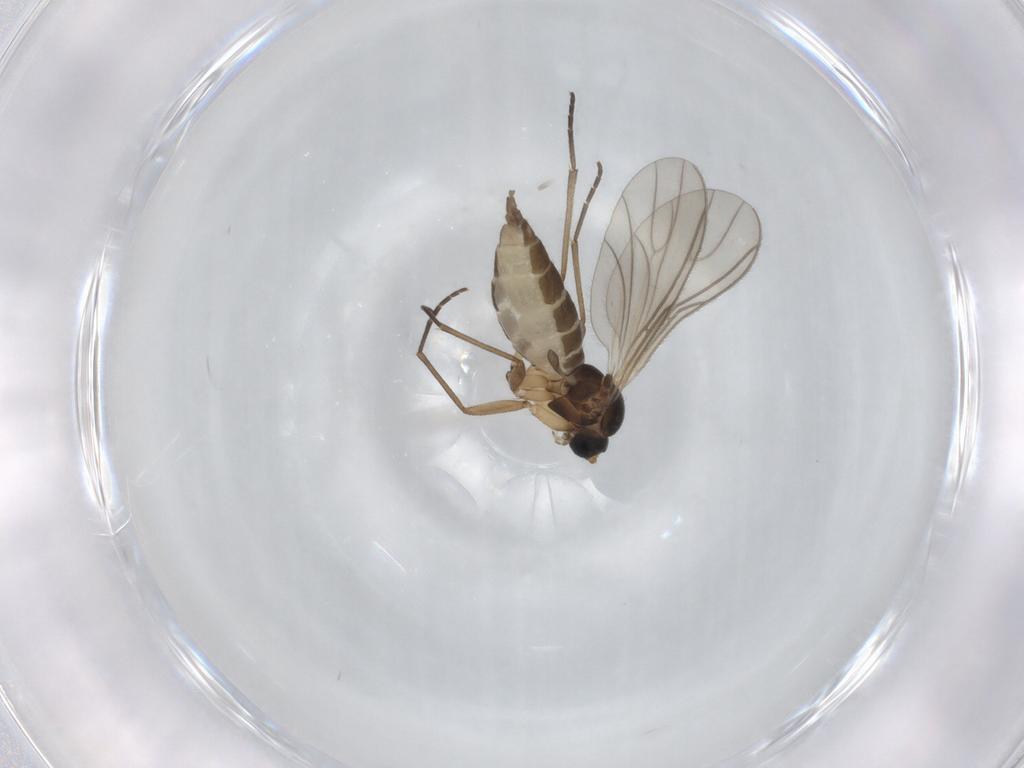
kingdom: Animalia
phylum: Arthropoda
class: Insecta
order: Diptera
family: Sciaridae
